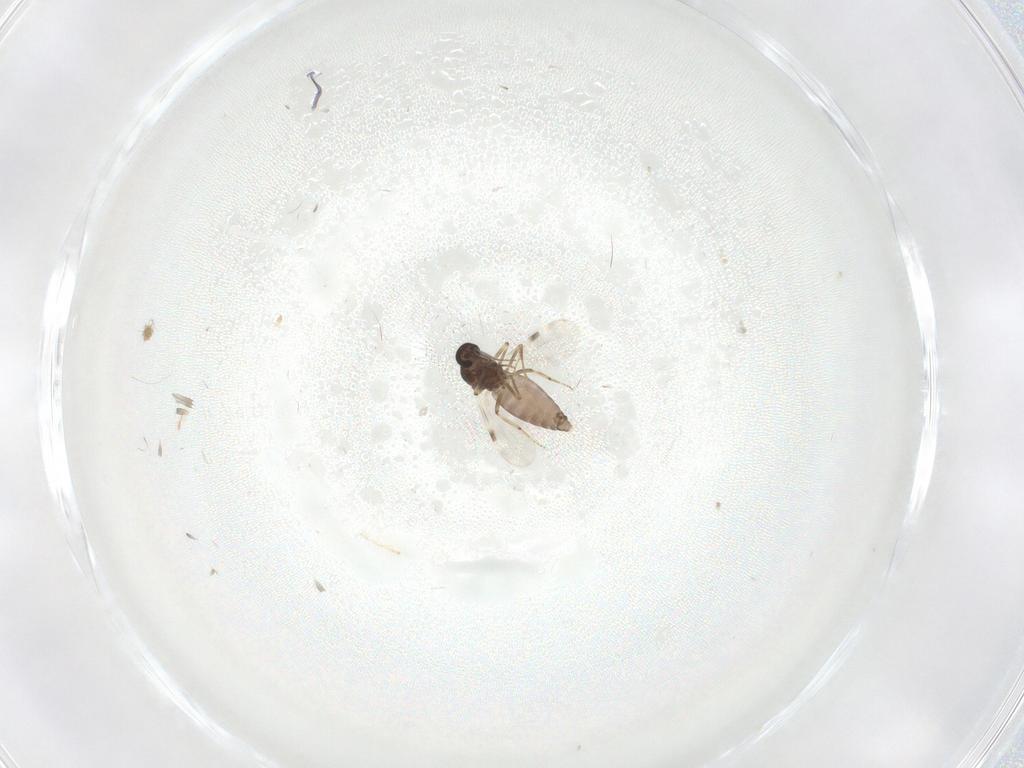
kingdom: Animalia
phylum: Arthropoda
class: Insecta
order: Diptera
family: Cecidomyiidae
